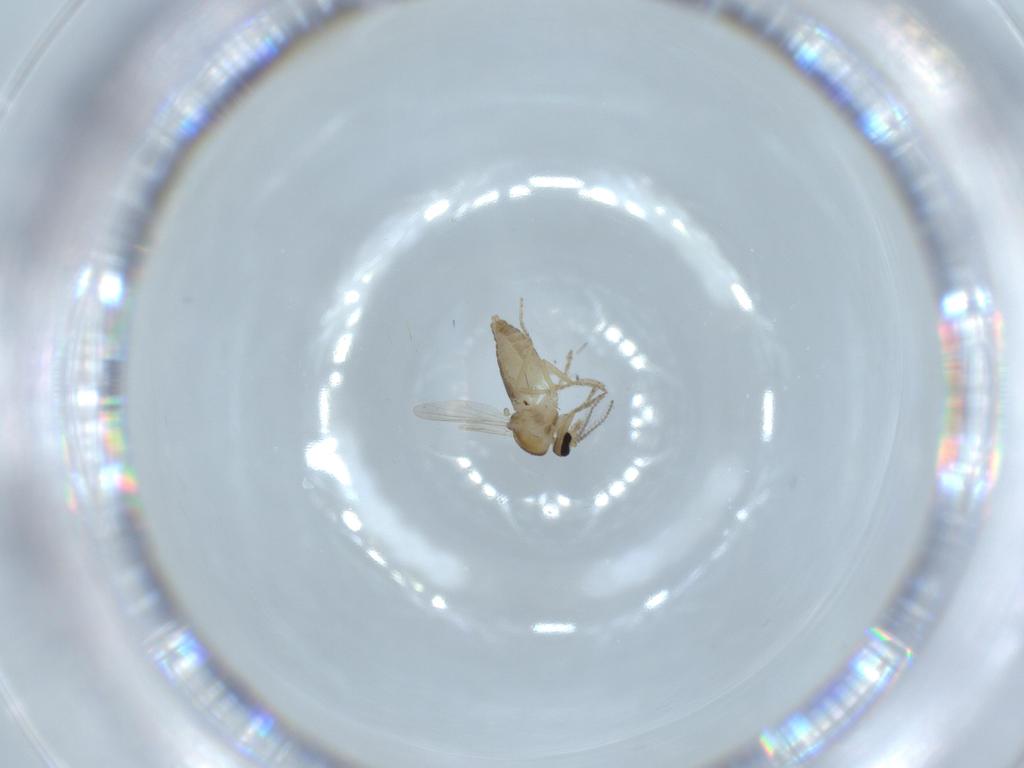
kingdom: Animalia
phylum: Arthropoda
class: Insecta
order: Diptera
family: Ceratopogonidae
